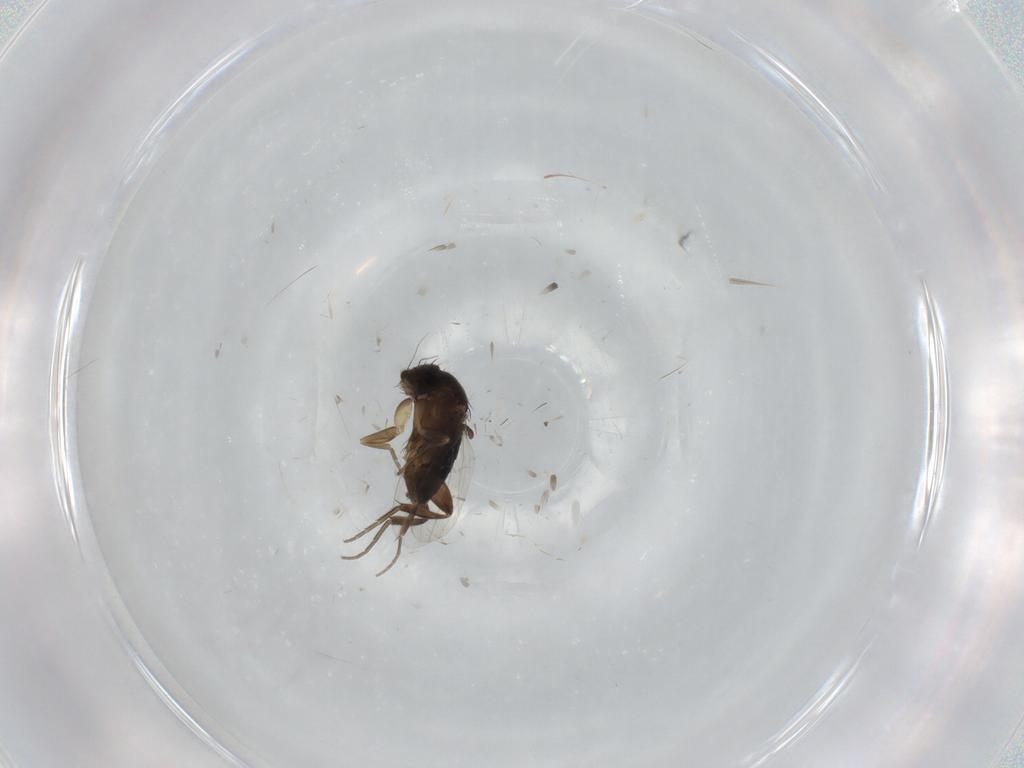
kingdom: Animalia
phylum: Arthropoda
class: Insecta
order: Diptera
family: Phoridae
